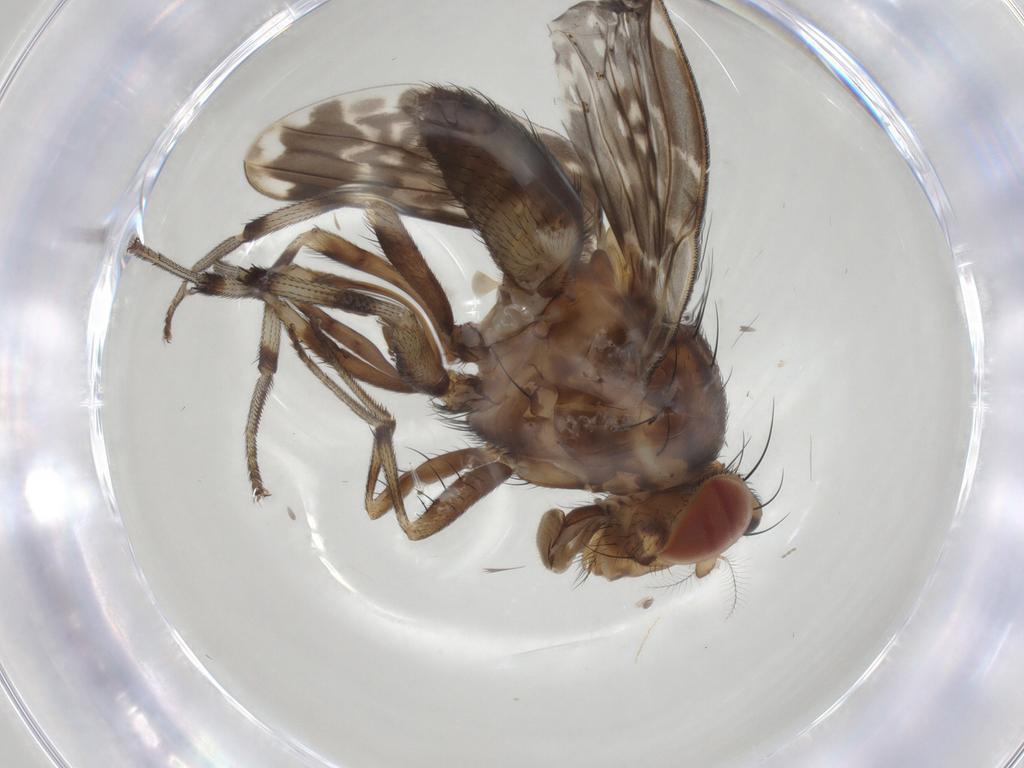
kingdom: Animalia
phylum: Arthropoda
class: Insecta
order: Diptera
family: Lauxaniidae
